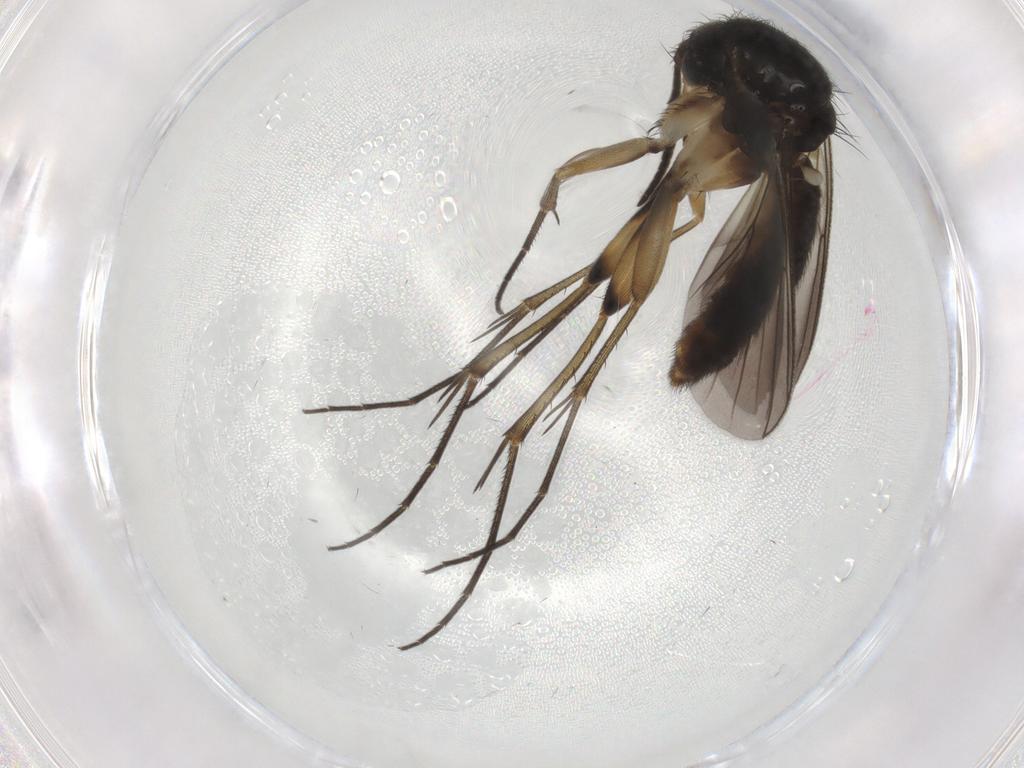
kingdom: Animalia
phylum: Arthropoda
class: Insecta
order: Diptera
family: Mycetophilidae
